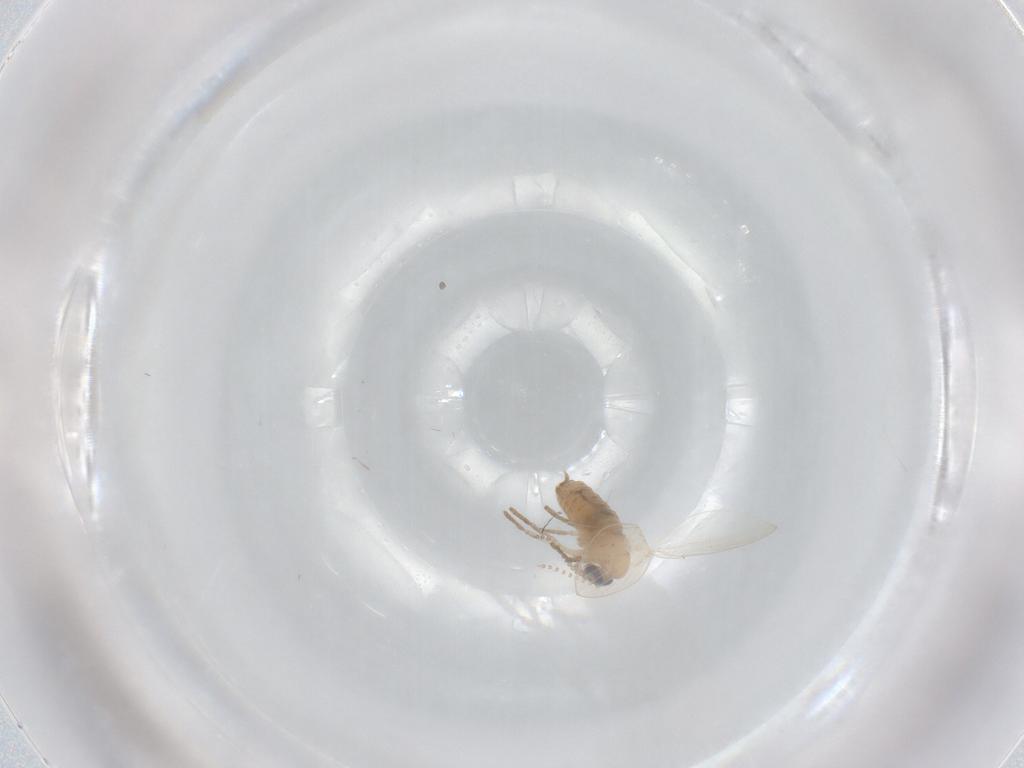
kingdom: Animalia
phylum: Arthropoda
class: Insecta
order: Diptera
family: Psychodidae
